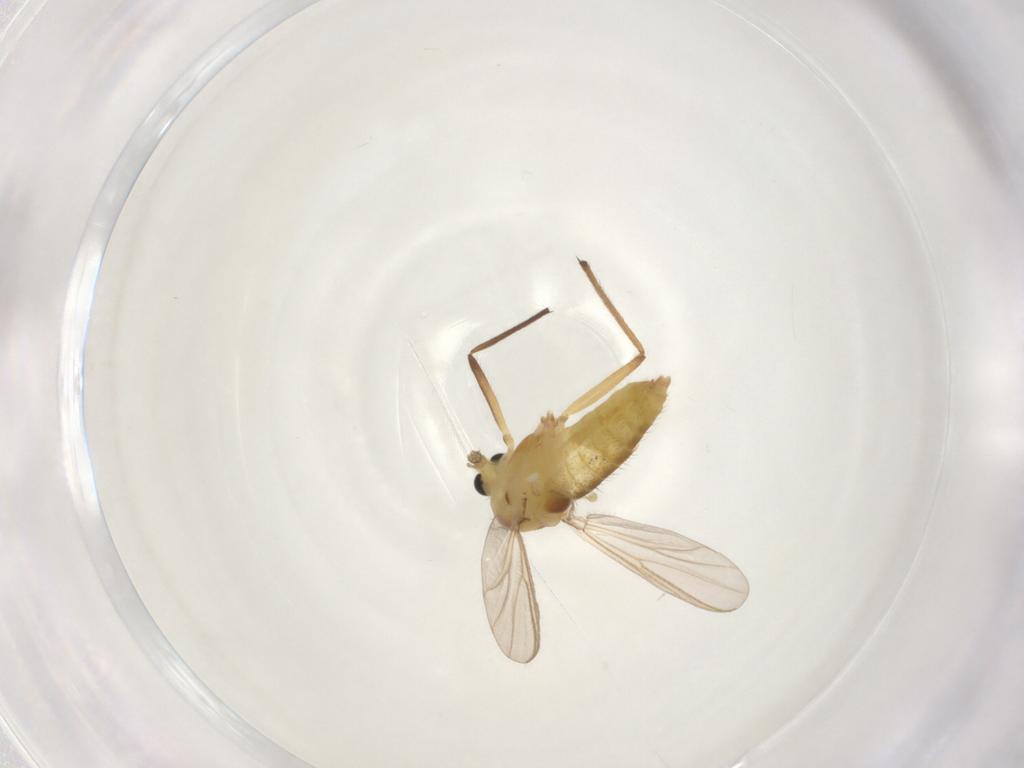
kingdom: Animalia
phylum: Arthropoda
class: Insecta
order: Diptera
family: Chironomidae
